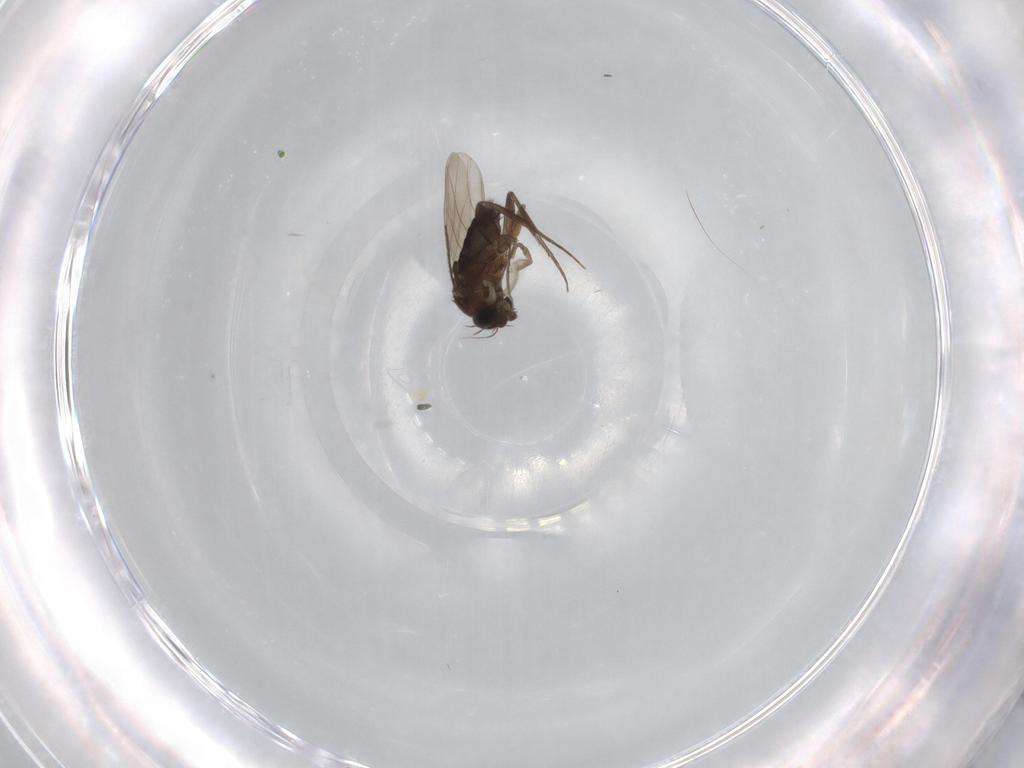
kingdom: Animalia
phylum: Arthropoda
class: Insecta
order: Diptera
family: Phoridae
